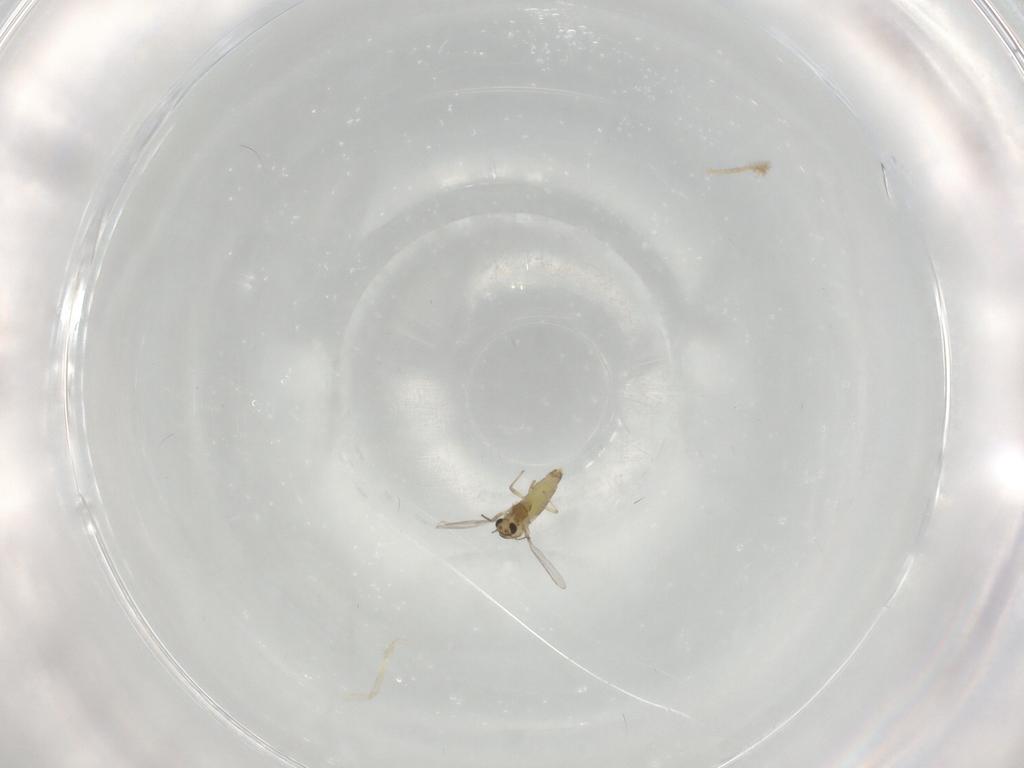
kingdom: Animalia
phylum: Arthropoda
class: Insecta
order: Diptera
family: Chironomidae
